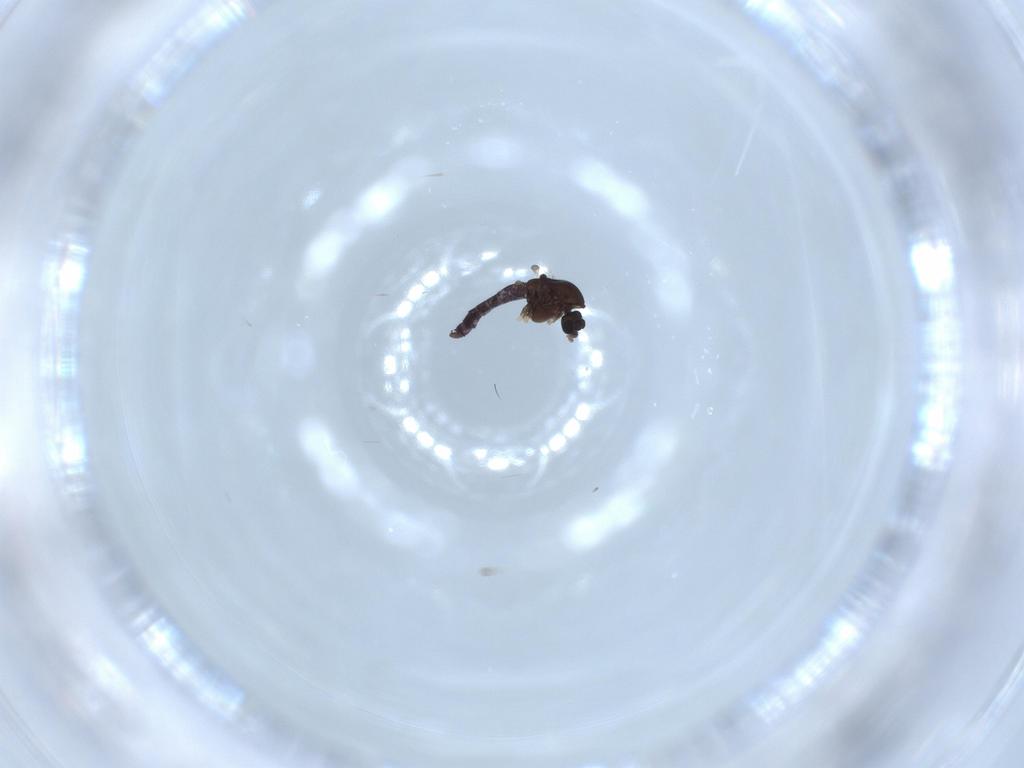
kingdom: Animalia
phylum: Arthropoda
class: Insecta
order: Diptera
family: Chironomidae
